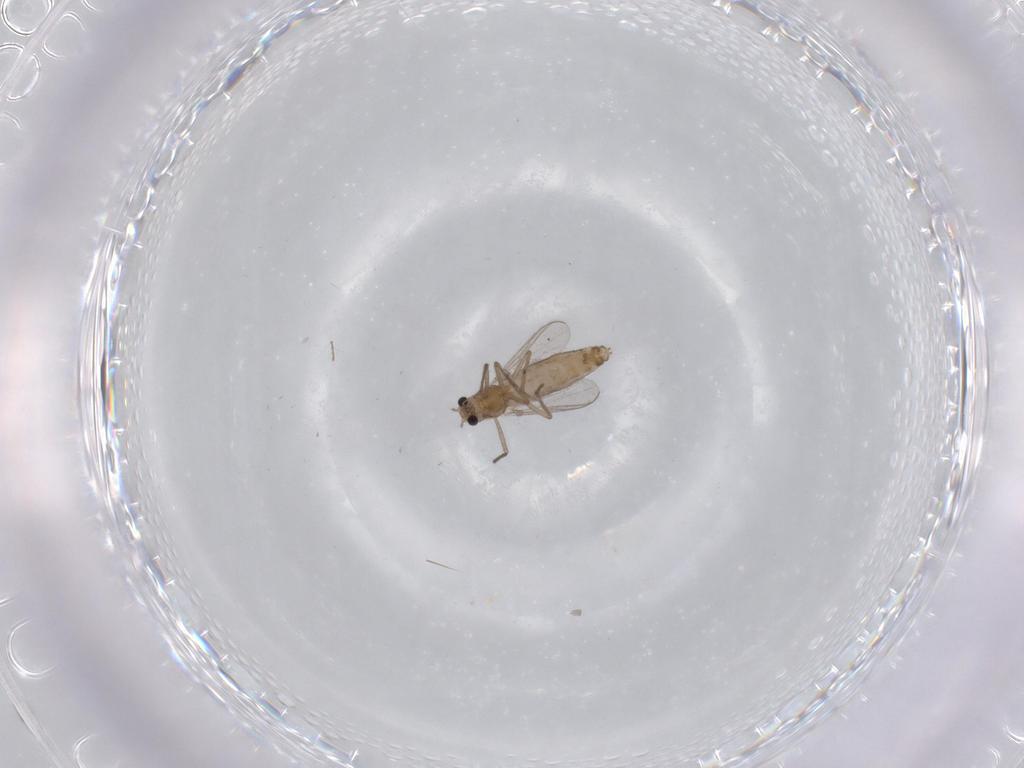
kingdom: Animalia
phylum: Arthropoda
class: Insecta
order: Diptera
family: Chironomidae
